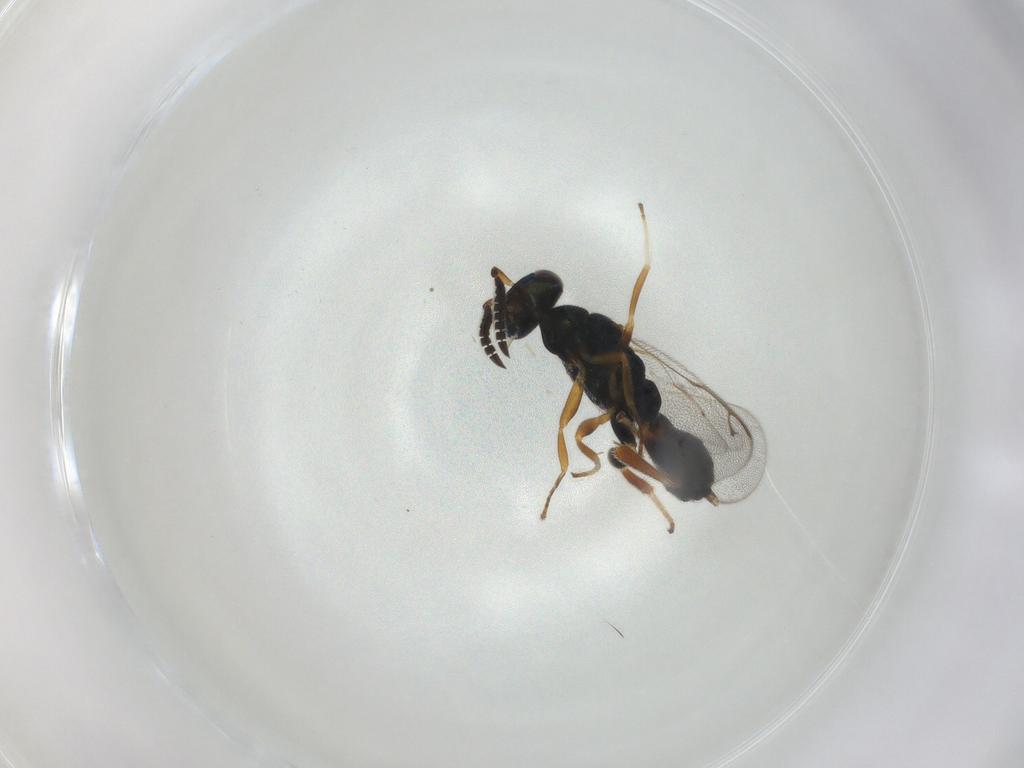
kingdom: Animalia
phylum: Arthropoda
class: Insecta
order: Hymenoptera
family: Cleonyminae
